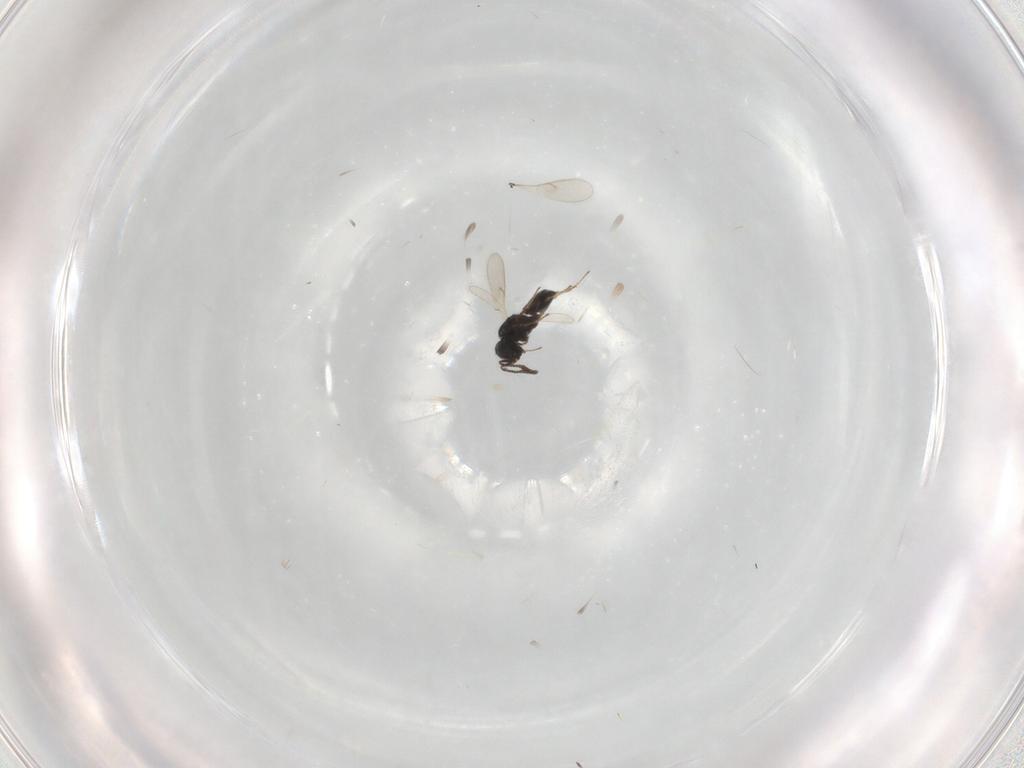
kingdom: Animalia
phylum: Arthropoda
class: Insecta
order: Hymenoptera
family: Scelionidae
